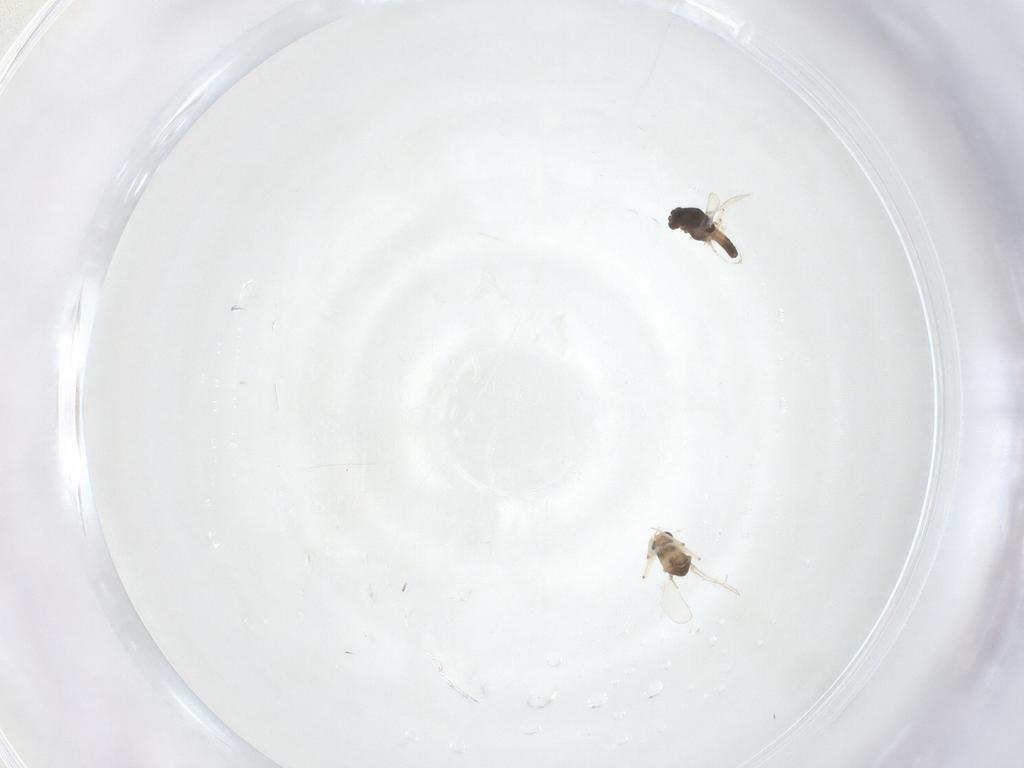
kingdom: Animalia
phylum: Arthropoda
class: Insecta
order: Diptera
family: Chironomidae
